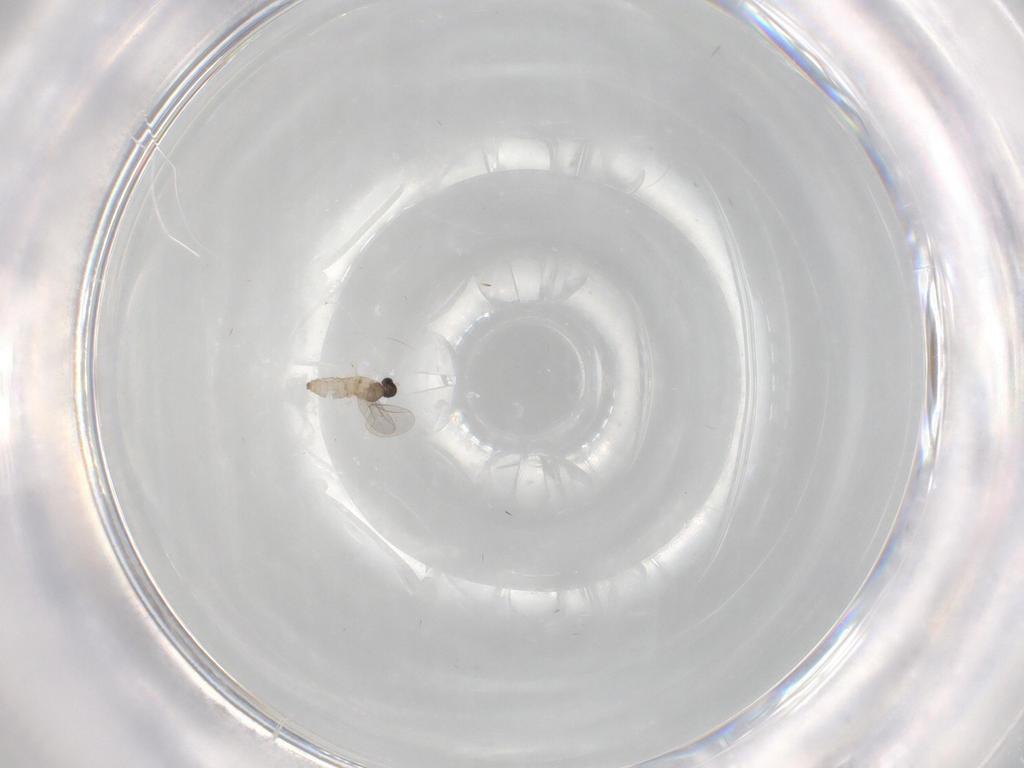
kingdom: Animalia
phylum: Arthropoda
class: Insecta
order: Diptera
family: Cecidomyiidae
